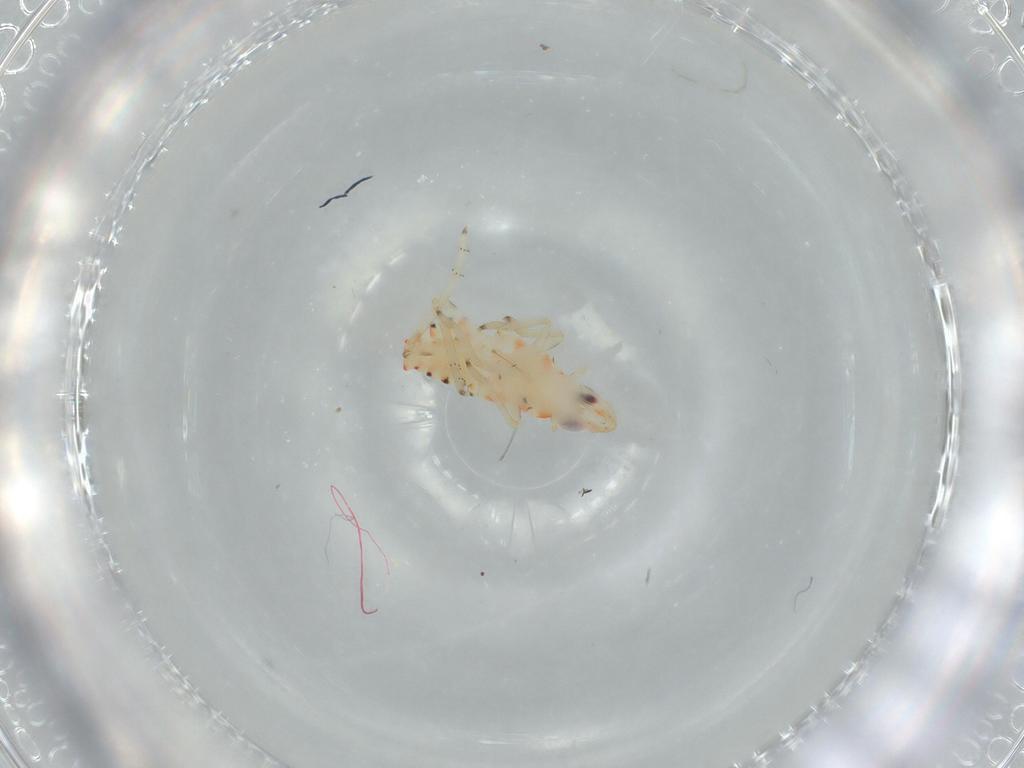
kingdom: Animalia
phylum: Arthropoda
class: Insecta
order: Hemiptera
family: Tropiduchidae
